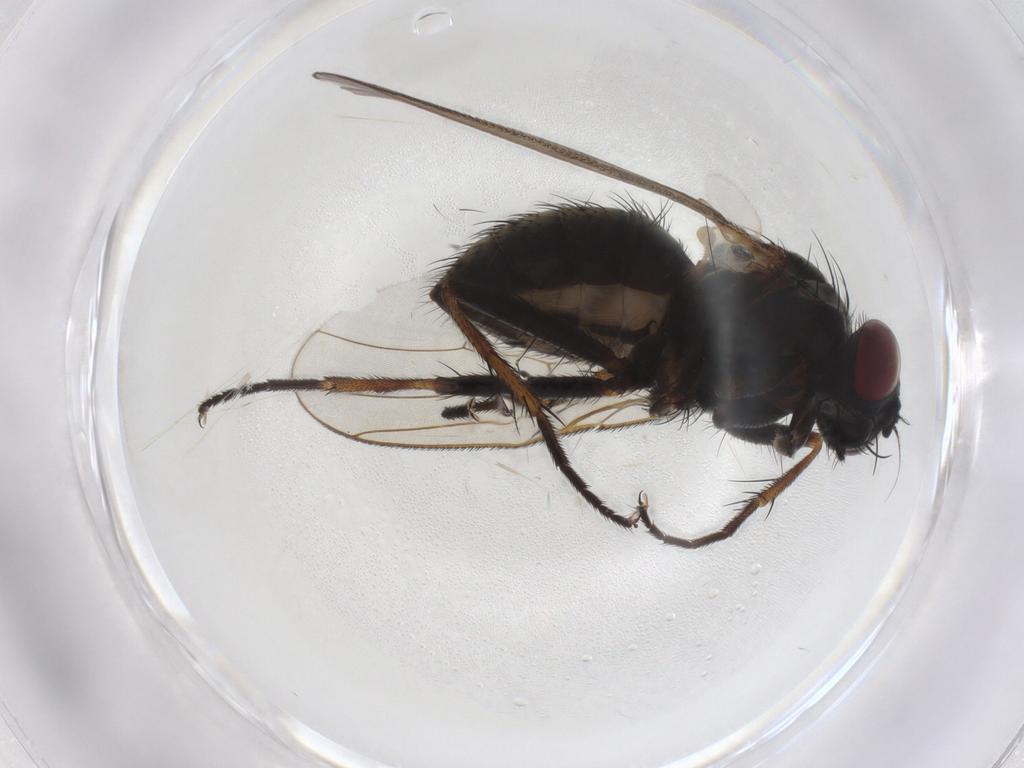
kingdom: Animalia
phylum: Arthropoda
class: Insecta
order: Diptera
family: Muscidae
